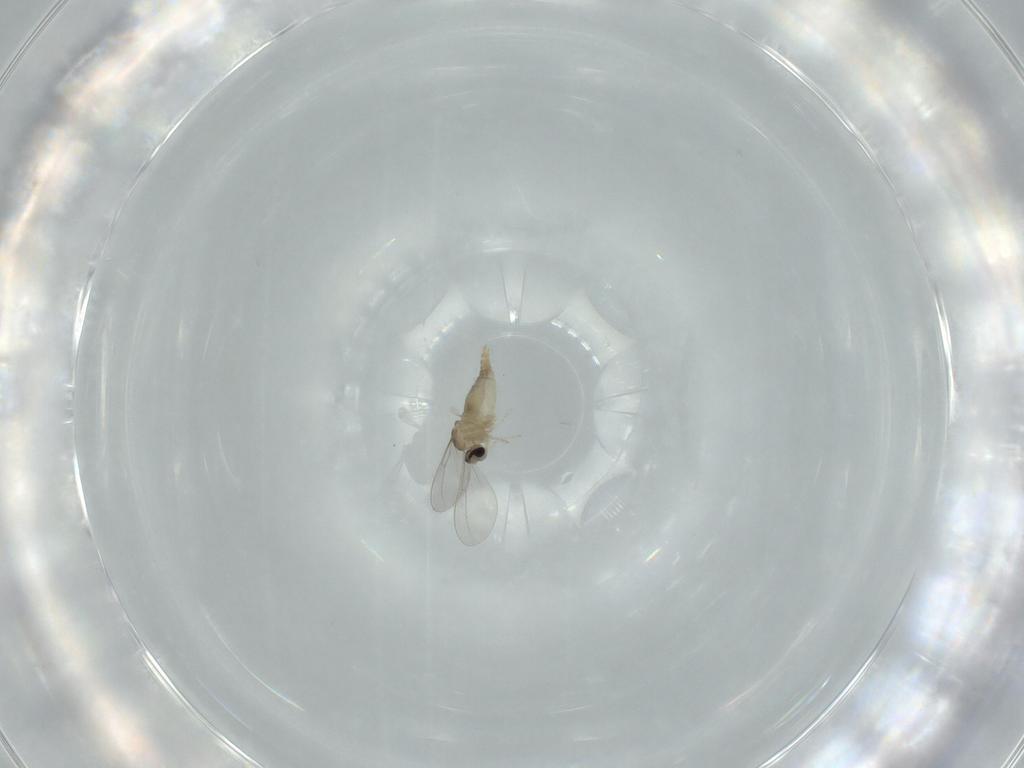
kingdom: Animalia
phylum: Arthropoda
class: Insecta
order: Diptera
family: Cecidomyiidae
